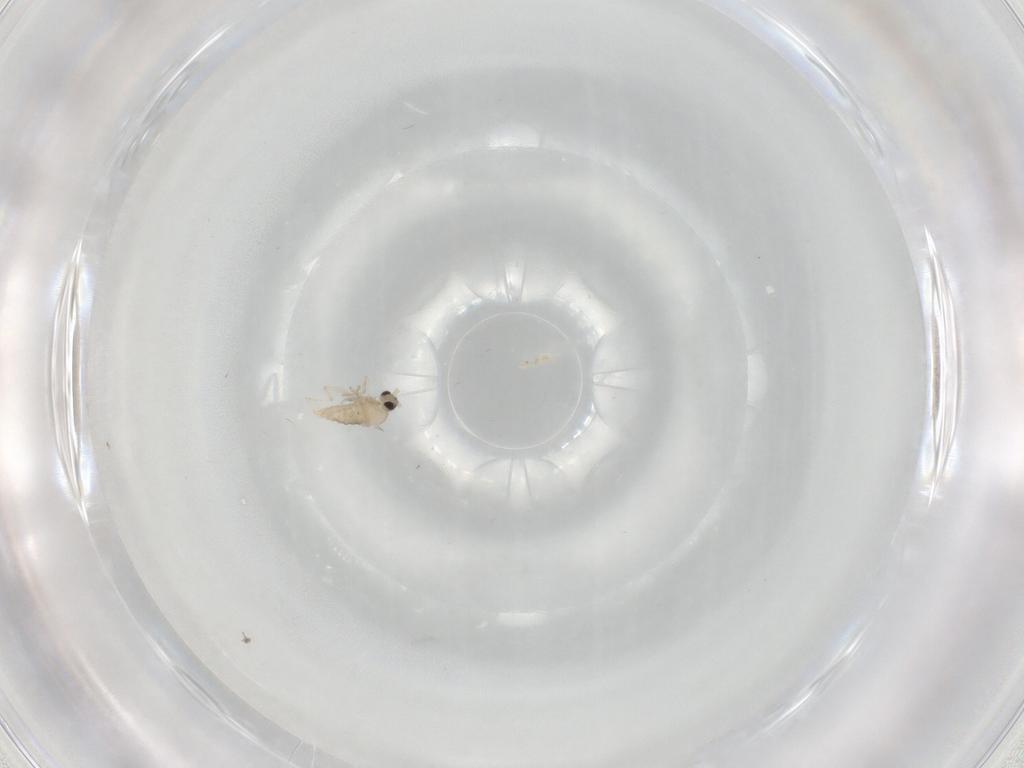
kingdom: Animalia
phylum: Arthropoda
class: Insecta
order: Diptera
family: Cecidomyiidae
